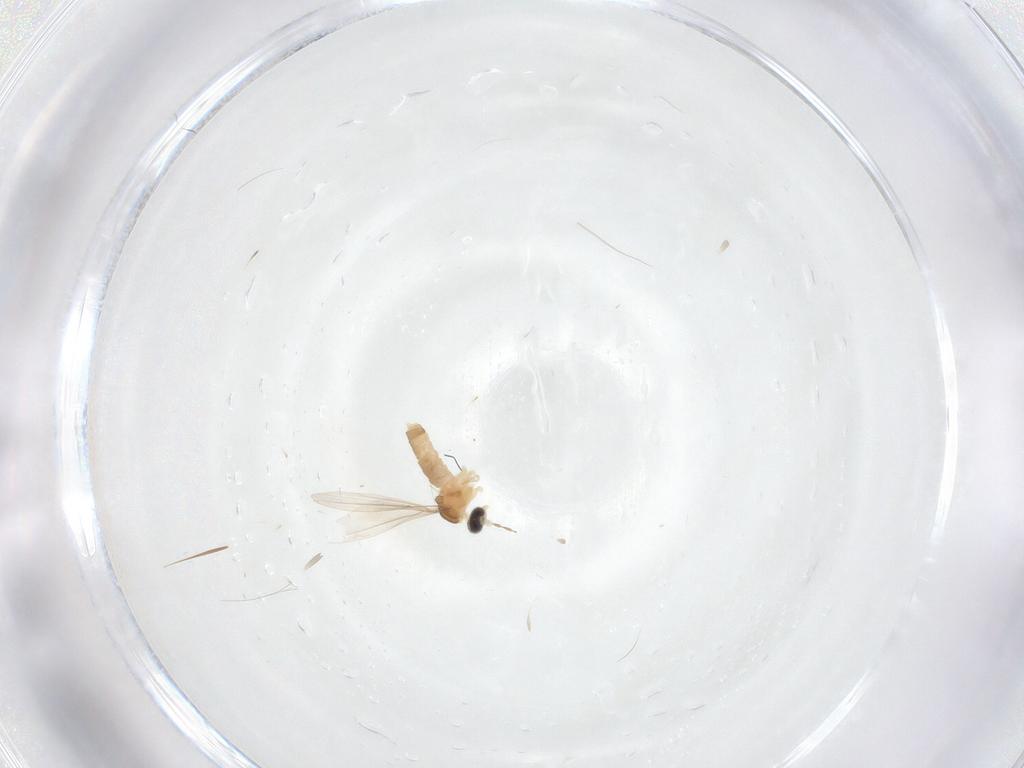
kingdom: Animalia
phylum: Arthropoda
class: Insecta
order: Diptera
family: Cecidomyiidae
